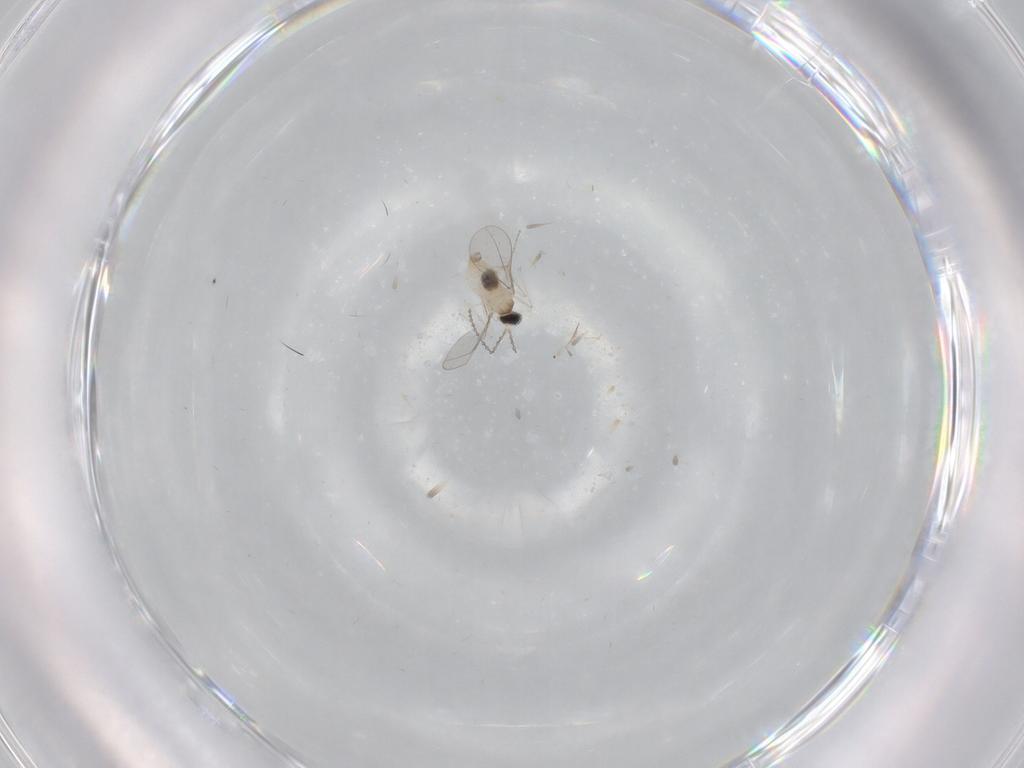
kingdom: Animalia
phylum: Arthropoda
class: Insecta
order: Diptera
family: Cecidomyiidae
